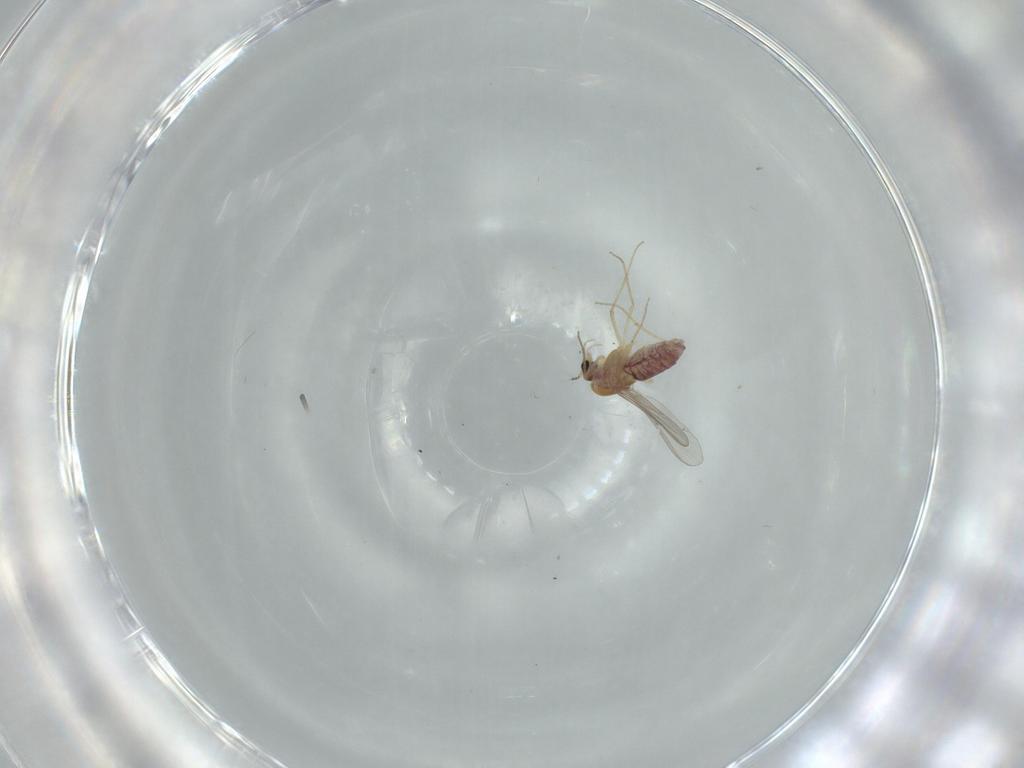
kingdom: Animalia
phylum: Arthropoda
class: Insecta
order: Diptera
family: Chironomidae
